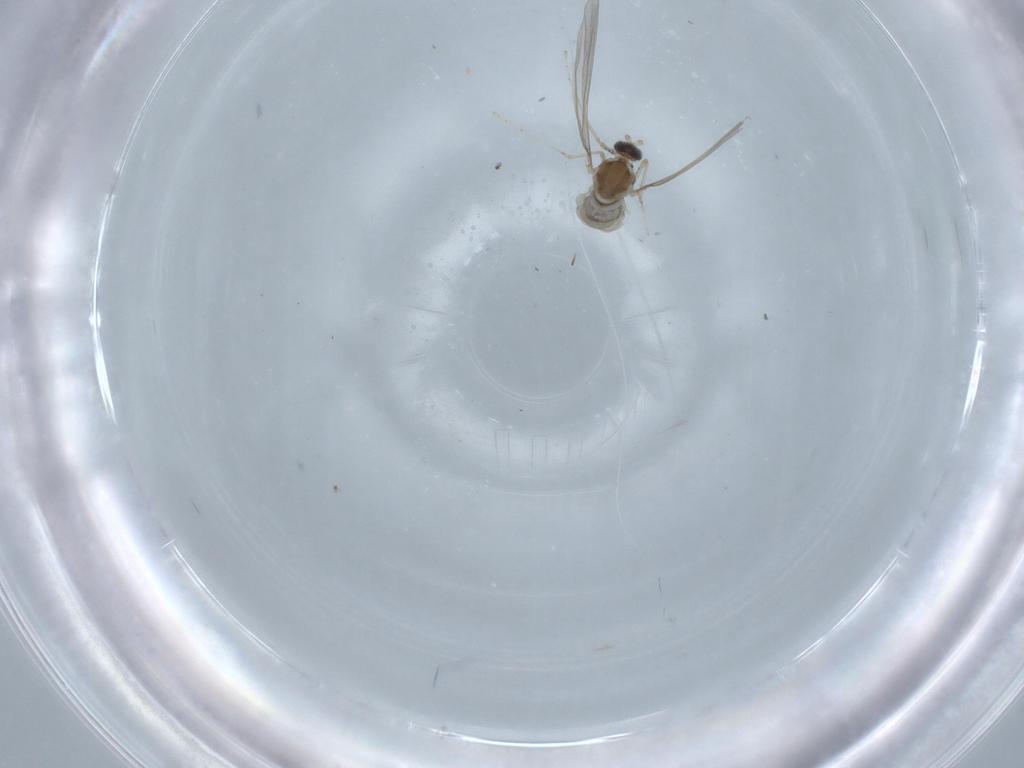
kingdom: Animalia
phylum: Arthropoda
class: Insecta
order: Diptera
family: Cecidomyiidae
